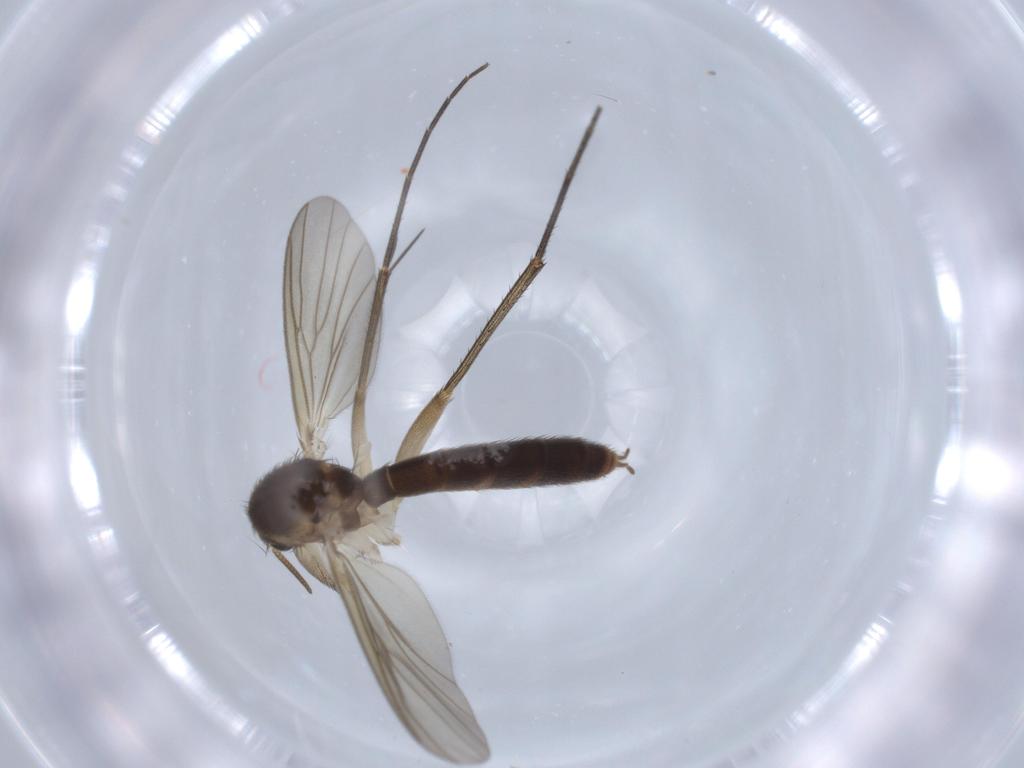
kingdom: Animalia
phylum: Arthropoda
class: Insecta
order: Diptera
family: Mycetophilidae
